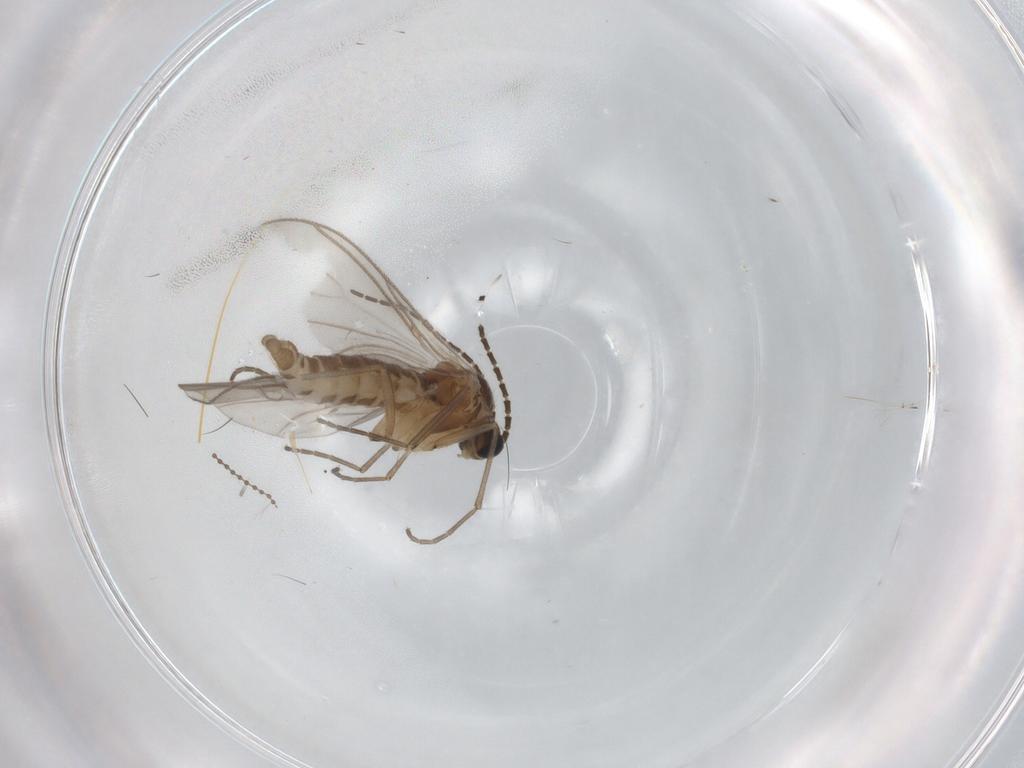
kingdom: Animalia
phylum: Arthropoda
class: Insecta
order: Diptera
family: Sciaridae
